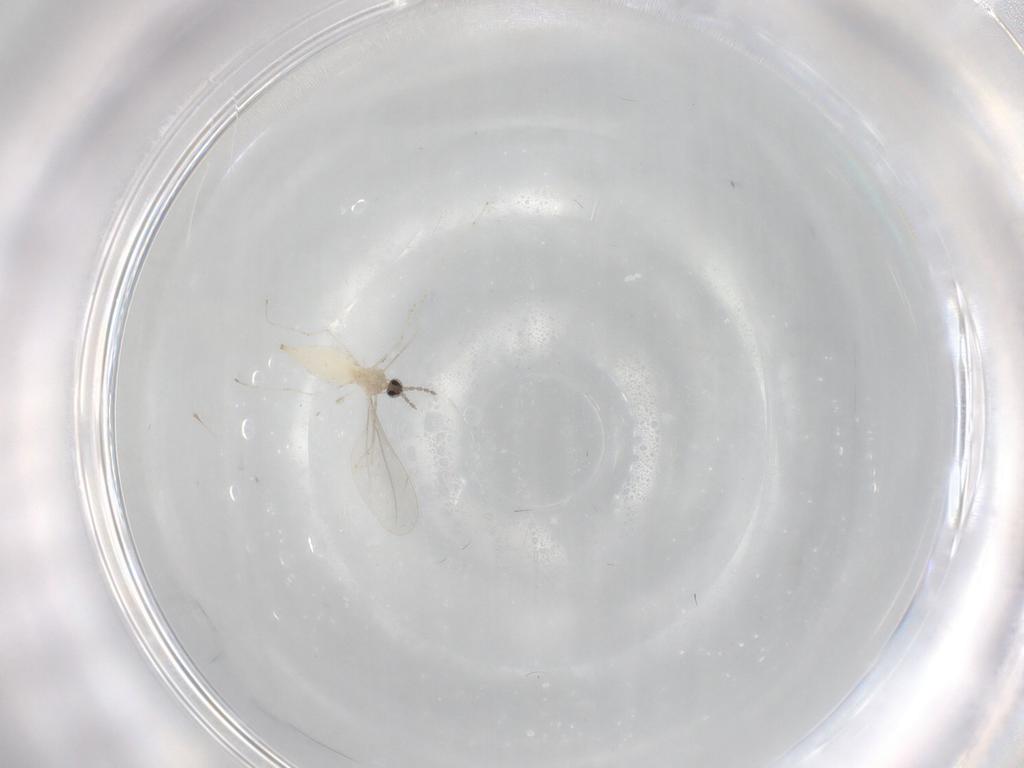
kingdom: Animalia
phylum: Arthropoda
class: Insecta
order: Diptera
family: Cecidomyiidae
